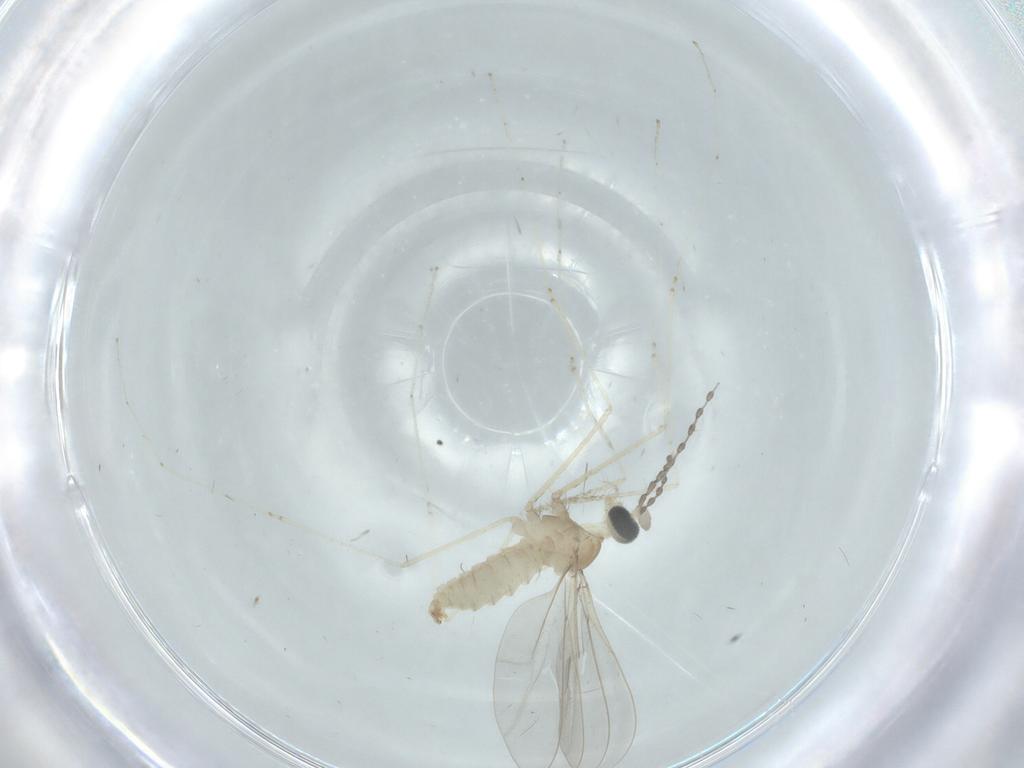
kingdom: Animalia
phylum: Arthropoda
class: Insecta
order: Diptera
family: Cecidomyiidae
